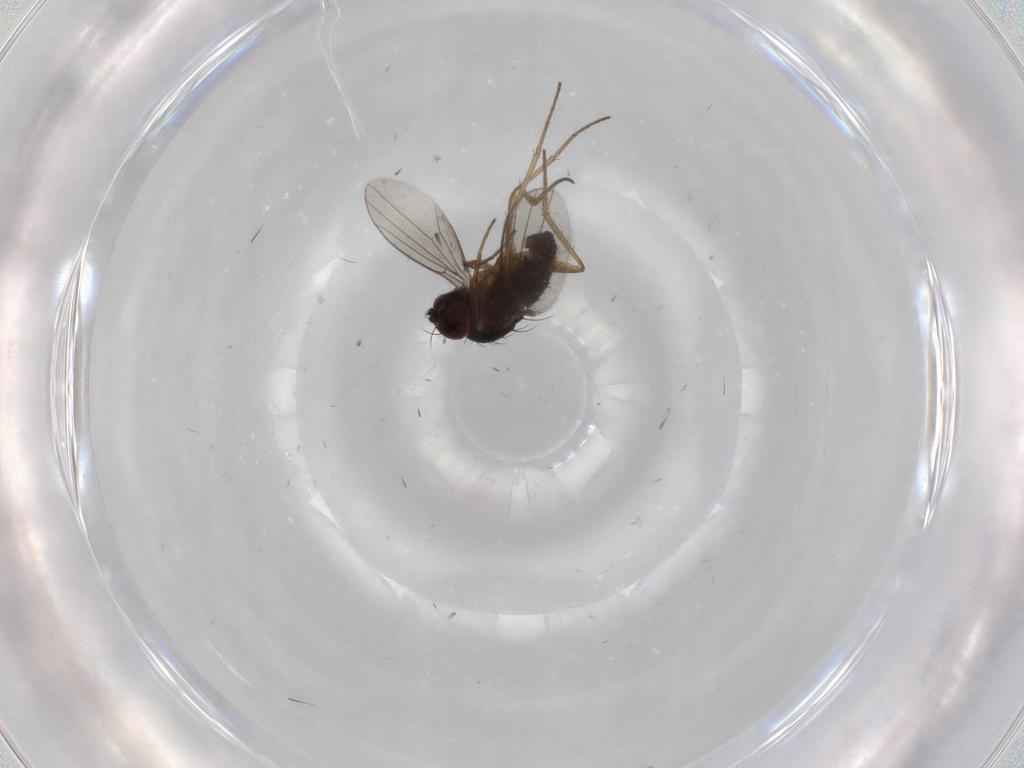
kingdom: Animalia
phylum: Arthropoda
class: Insecta
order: Diptera
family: Dolichopodidae
